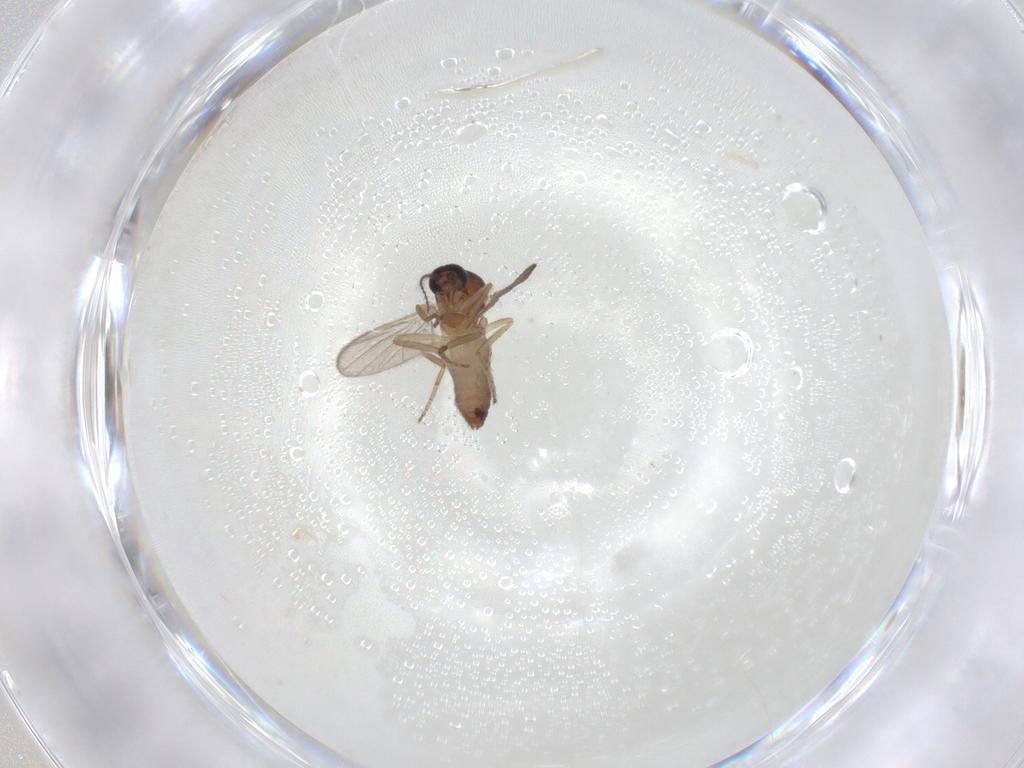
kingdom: Animalia
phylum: Arthropoda
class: Insecta
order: Diptera
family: Ceratopogonidae
